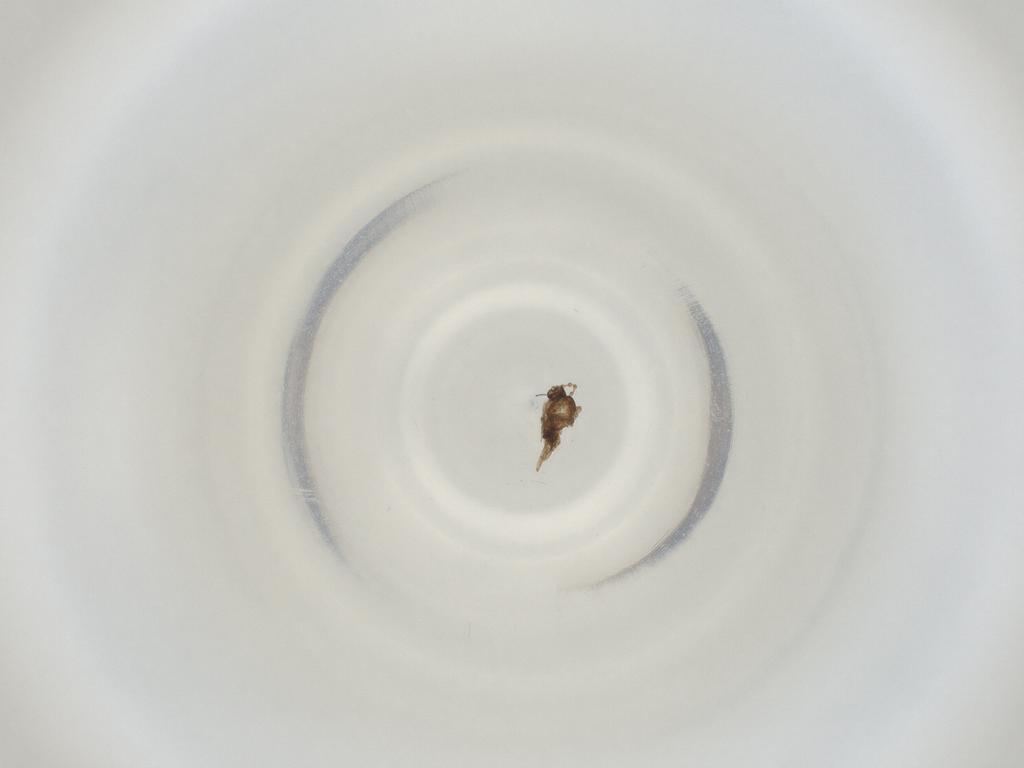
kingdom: Animalia
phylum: Arthropoda
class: Insecta
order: Diptera
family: Cecidomyiidae
